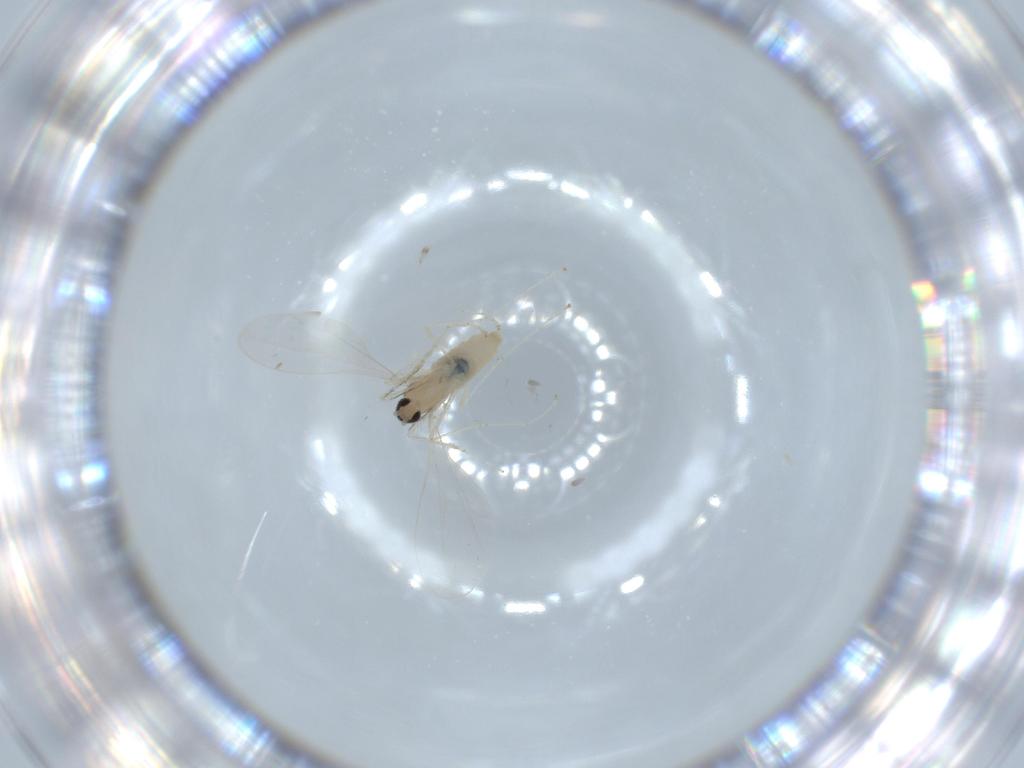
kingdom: Animalia
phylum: Arthropoda
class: Insecta
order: Diptera
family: Cecidomyiidae
